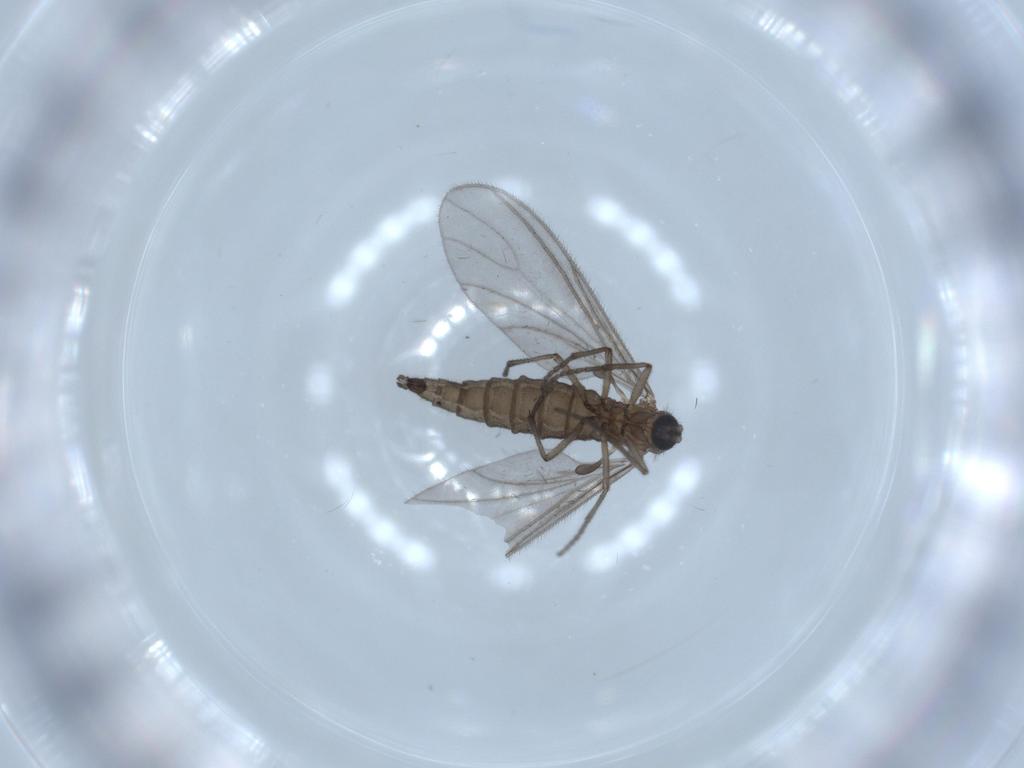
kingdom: Animalia
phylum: Arthropoda
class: Insecta
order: Diptera
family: Sciaridae
